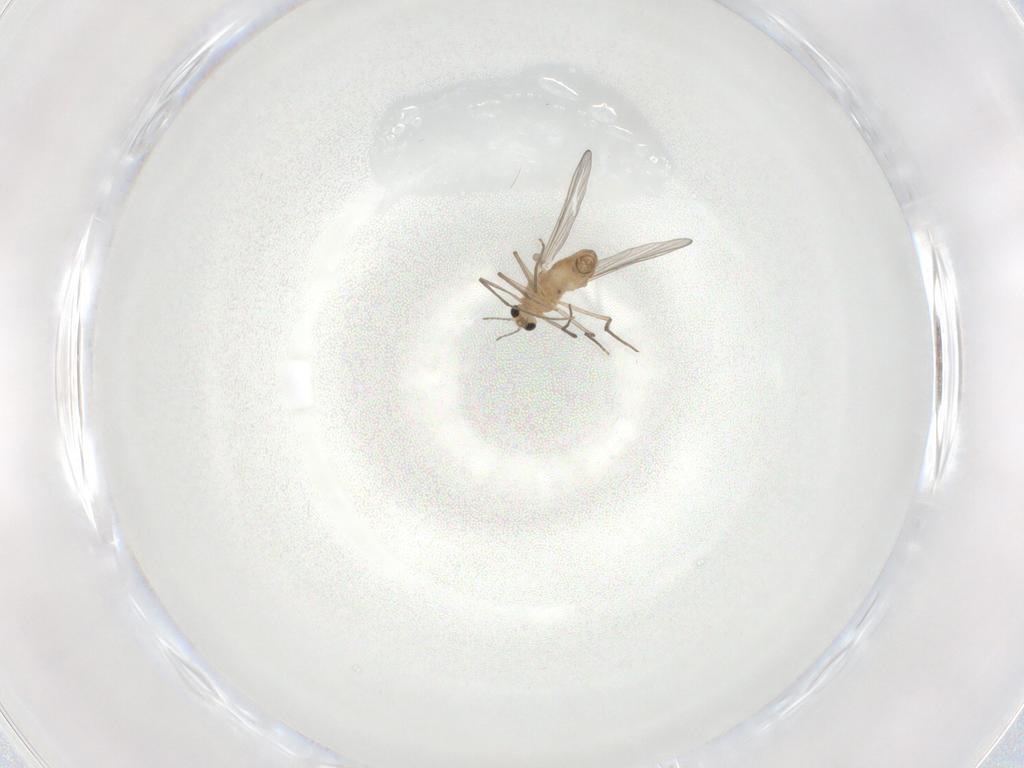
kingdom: Animalia
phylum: Arthropoda
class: Insecta
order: Diptera
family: Chironomidae
